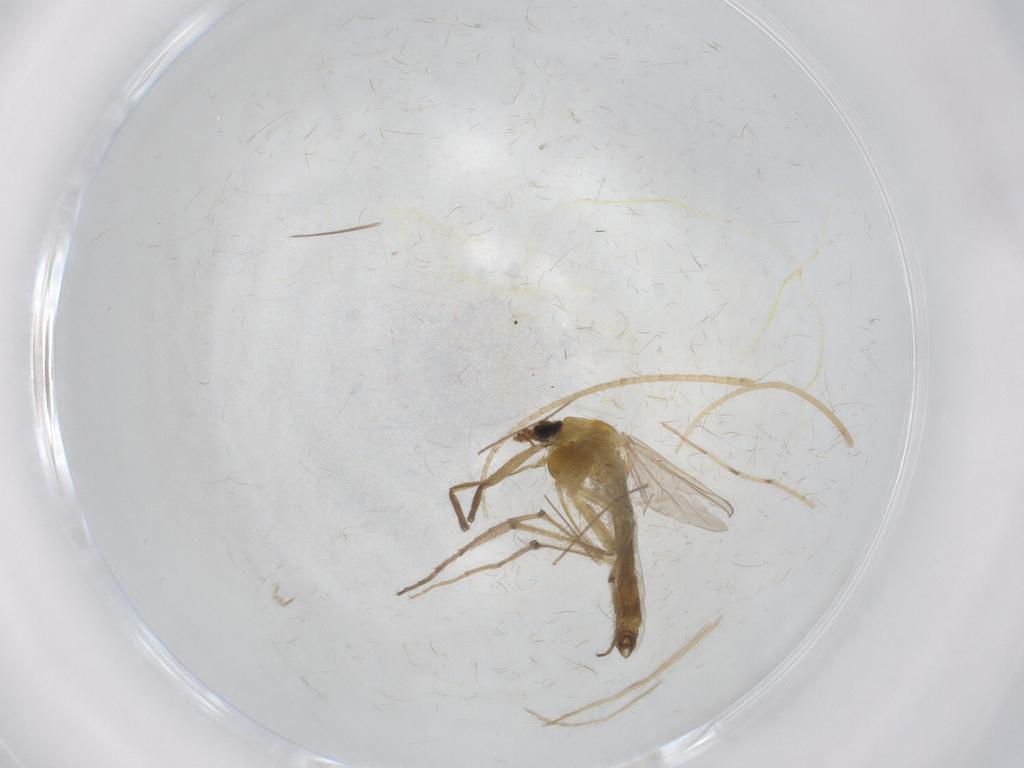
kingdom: Animalia
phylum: Arthropoda
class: Insecta
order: Diptera
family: Chironomidae
